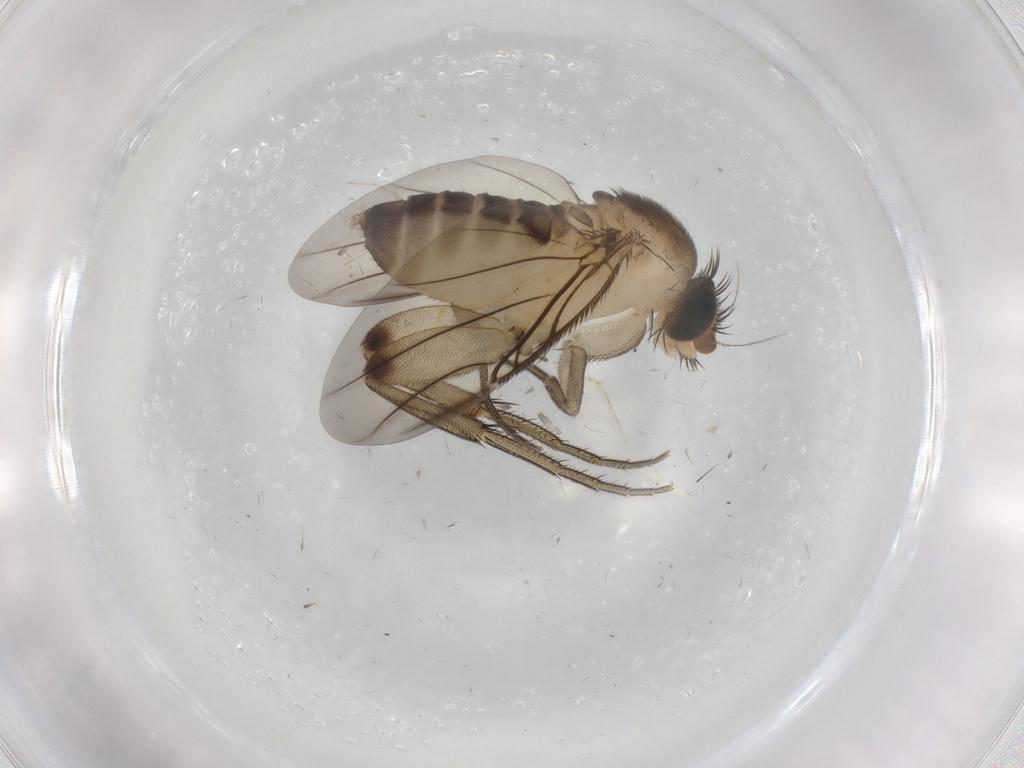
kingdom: Animalia
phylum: Arthropoda
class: Insecta
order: Diptera
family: Phoridae
